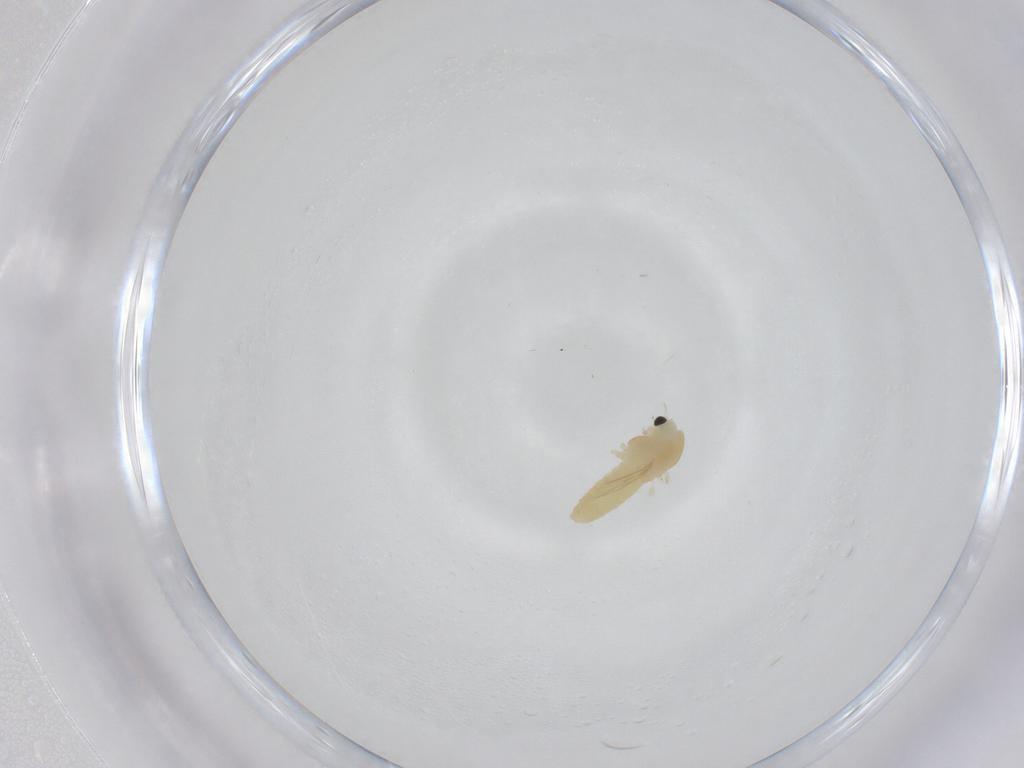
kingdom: Animalia
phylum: Arthropoda
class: Insecta
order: Diptera
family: Chironomidae
